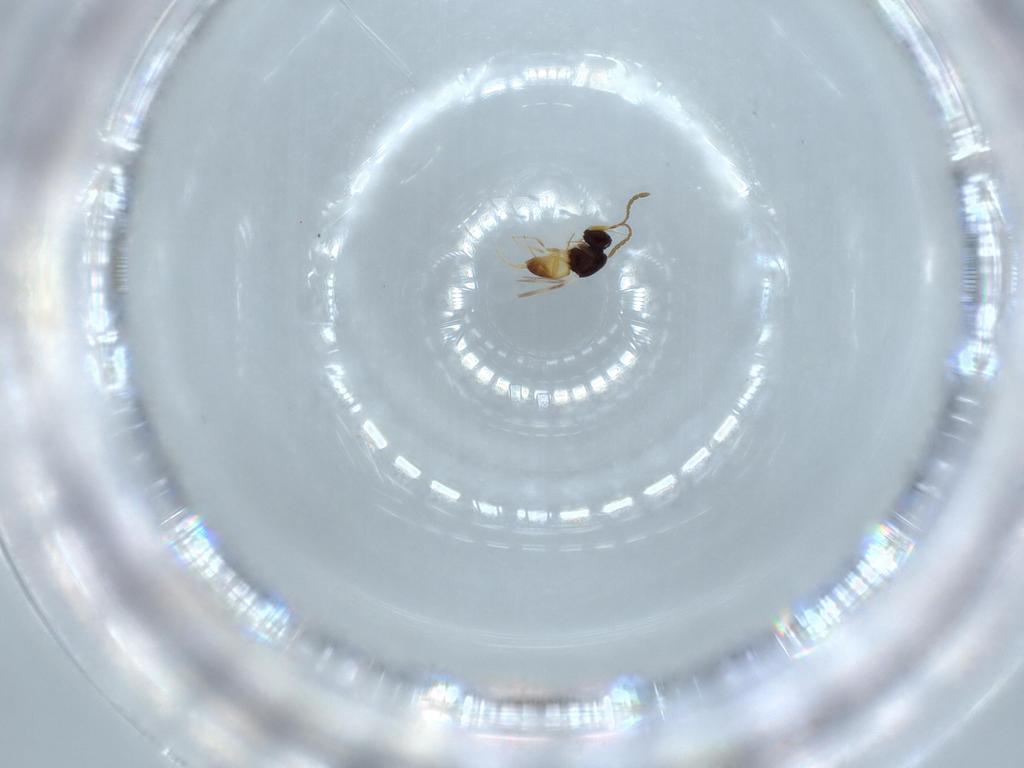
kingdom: Animalia
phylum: Arthropoda
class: Insecta
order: Hymenoptera
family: Ceraphronidae
